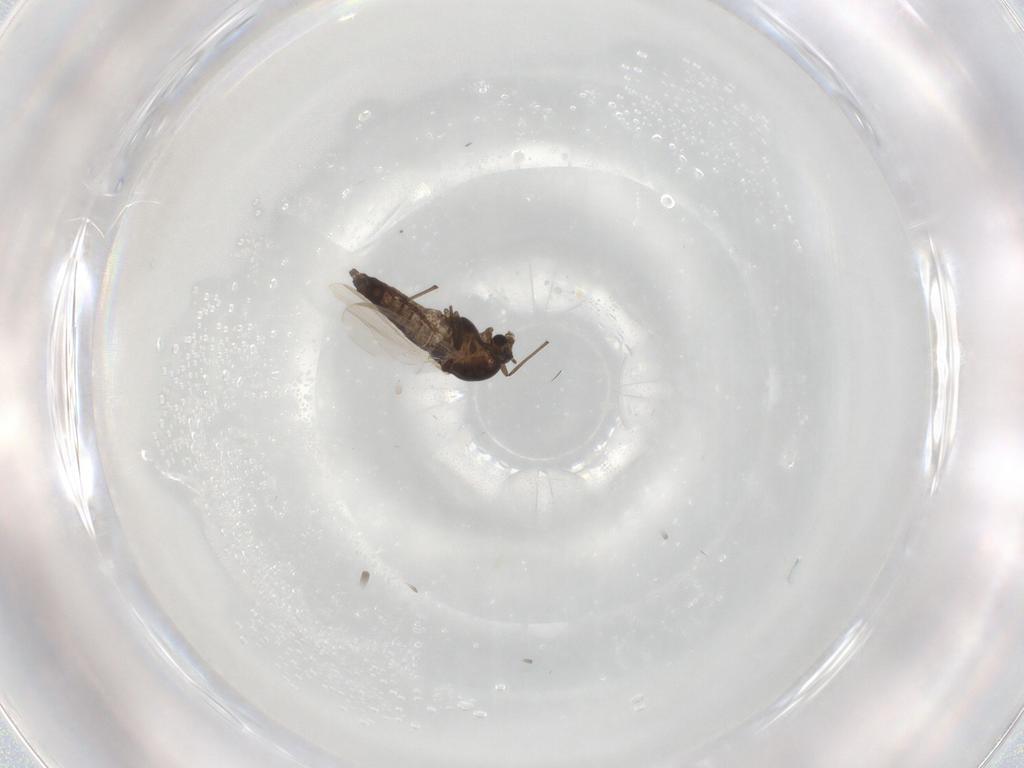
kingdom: Animalia
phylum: Arthropoda
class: Insecta
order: Diptera
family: Chironomidae
